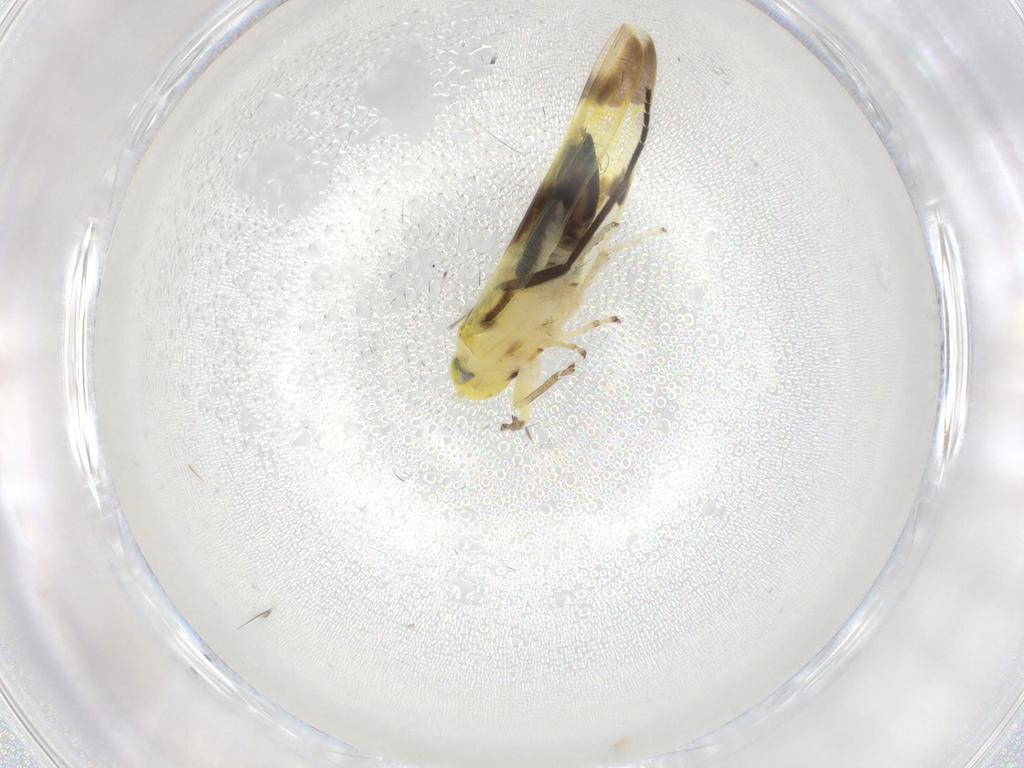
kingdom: Animalia
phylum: Arthropoda
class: Insecta
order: Hemiptera
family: Cicadellidae
